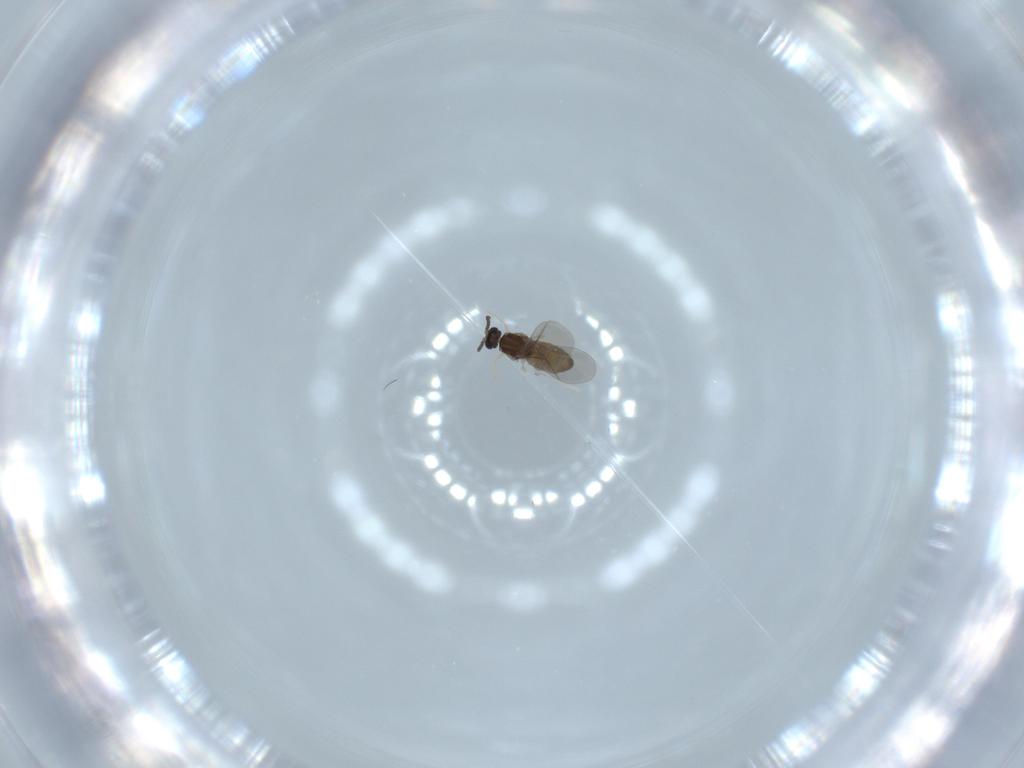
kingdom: Animalia
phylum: Arthropoda
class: Insecta
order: Diptera
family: Cecidomyiidae
